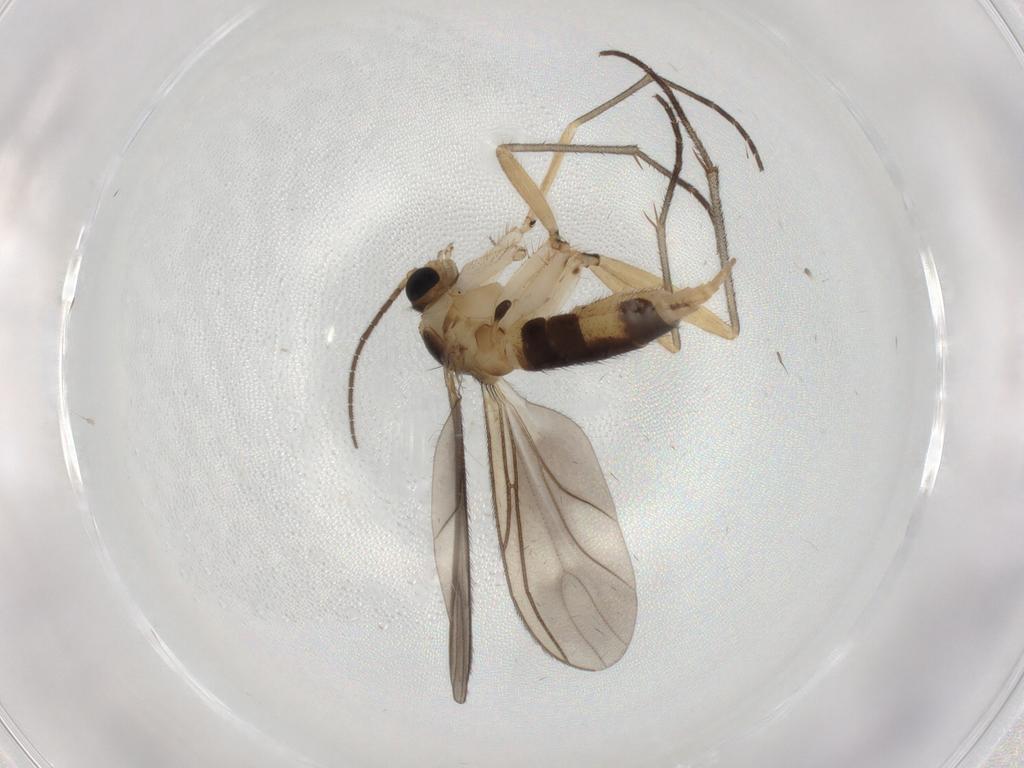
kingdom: Animalia
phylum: Arthropoda
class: Insecta
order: Diptera
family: Sciaridae
